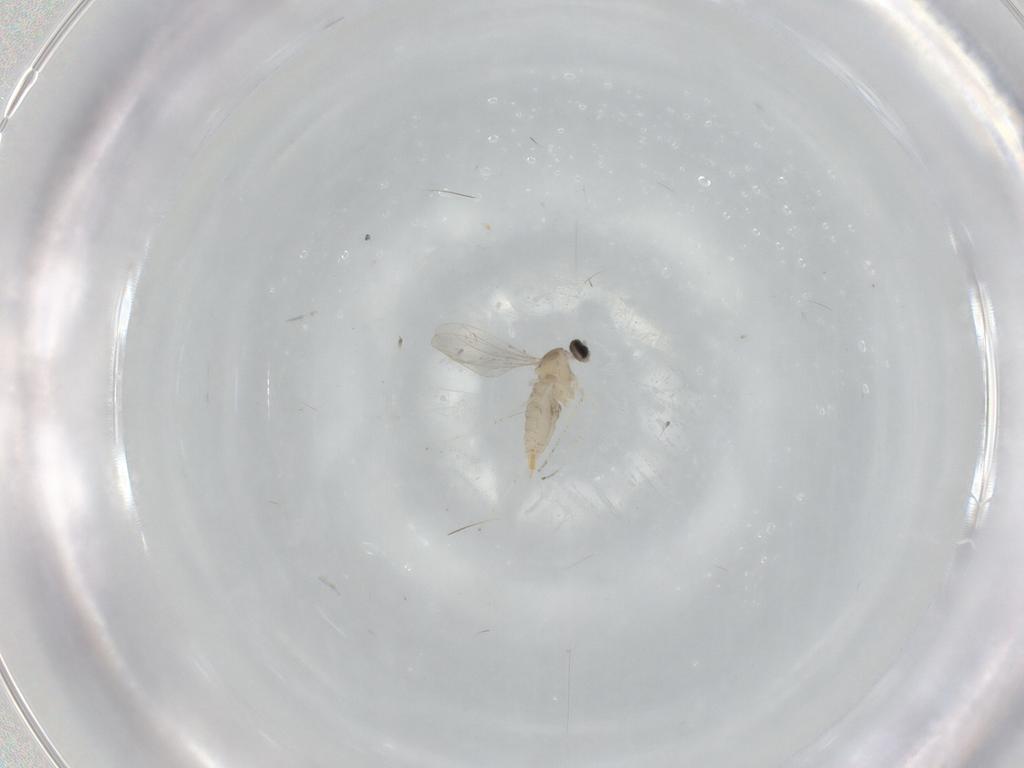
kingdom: Animalia
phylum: Arthropoda
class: Insecta
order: Diptera
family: Cecidomyiidae
